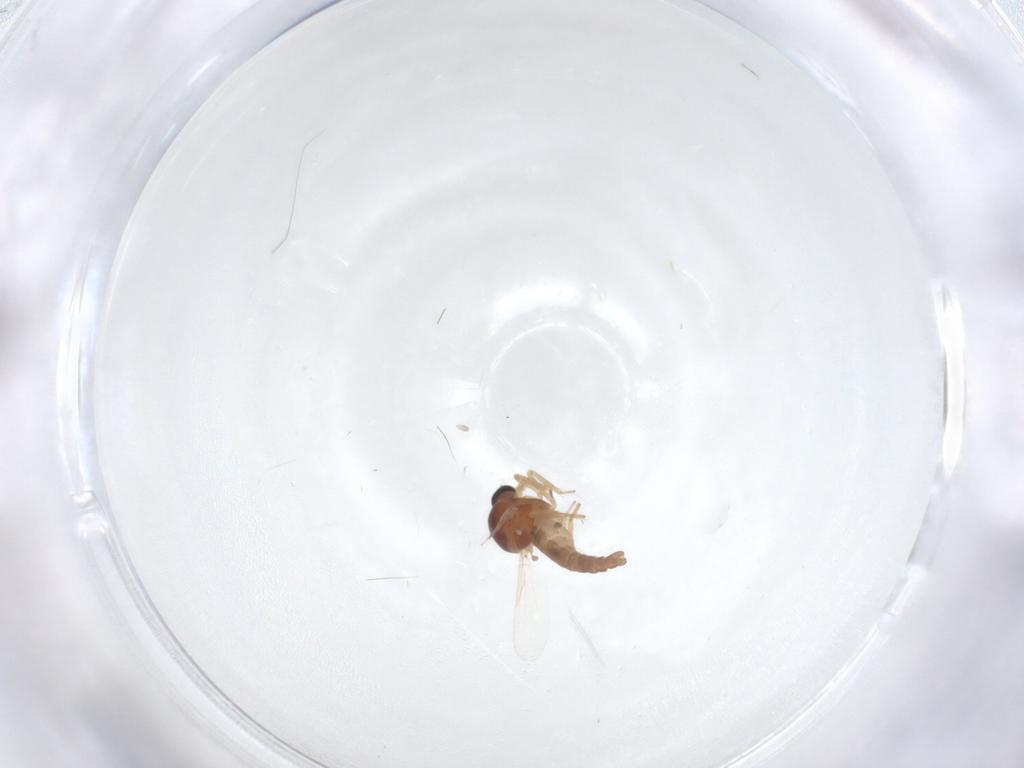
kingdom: Animalia
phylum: Arthropoda
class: Insecta
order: Diptera
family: Ceratopogonidae
